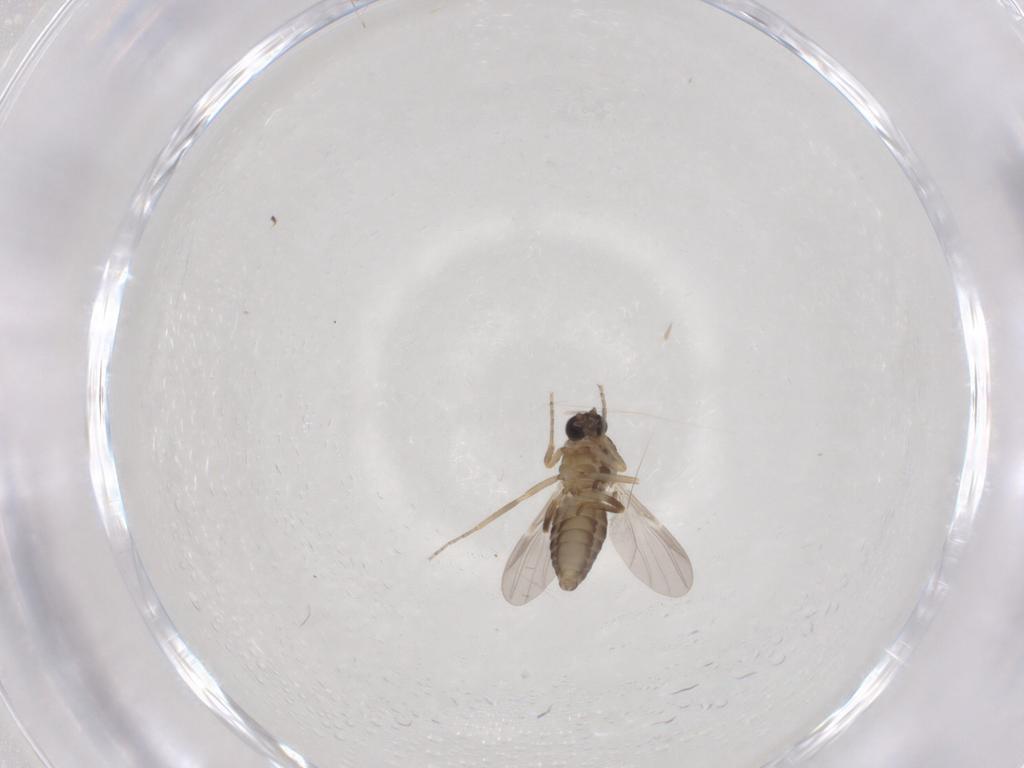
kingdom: Animalia
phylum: Arthropoda
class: Insecta
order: Diptera
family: Ceratopogonidae
